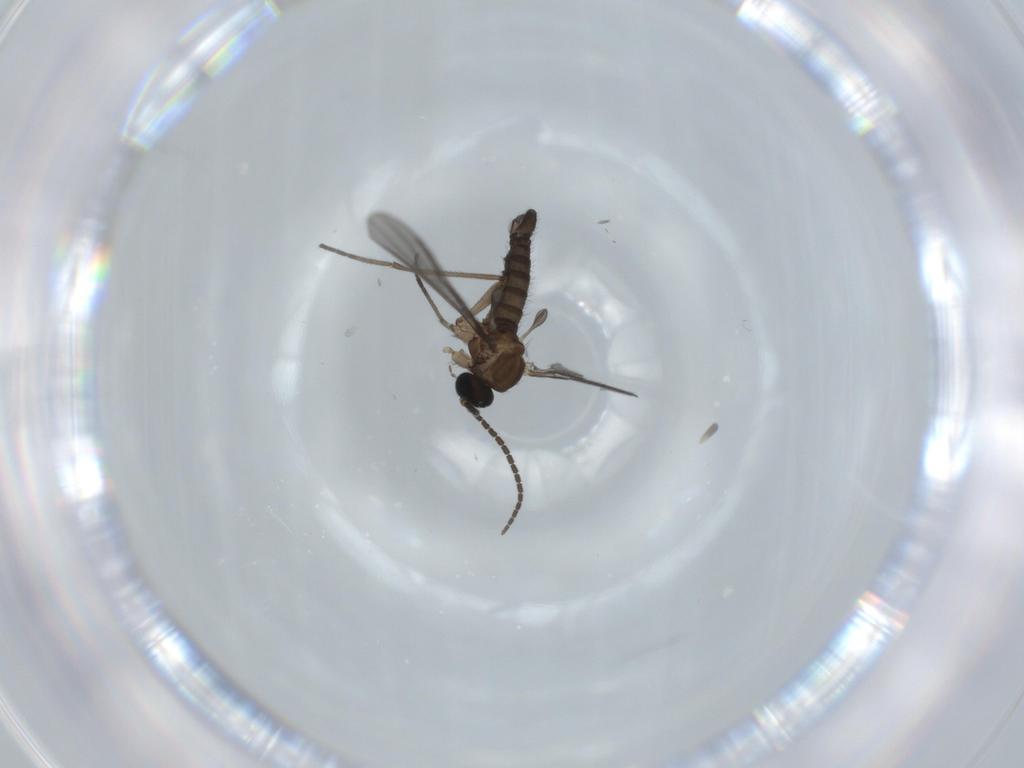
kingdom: Animalia
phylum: Arthropoda
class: Insecta
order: Diptera
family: Sciaridae
